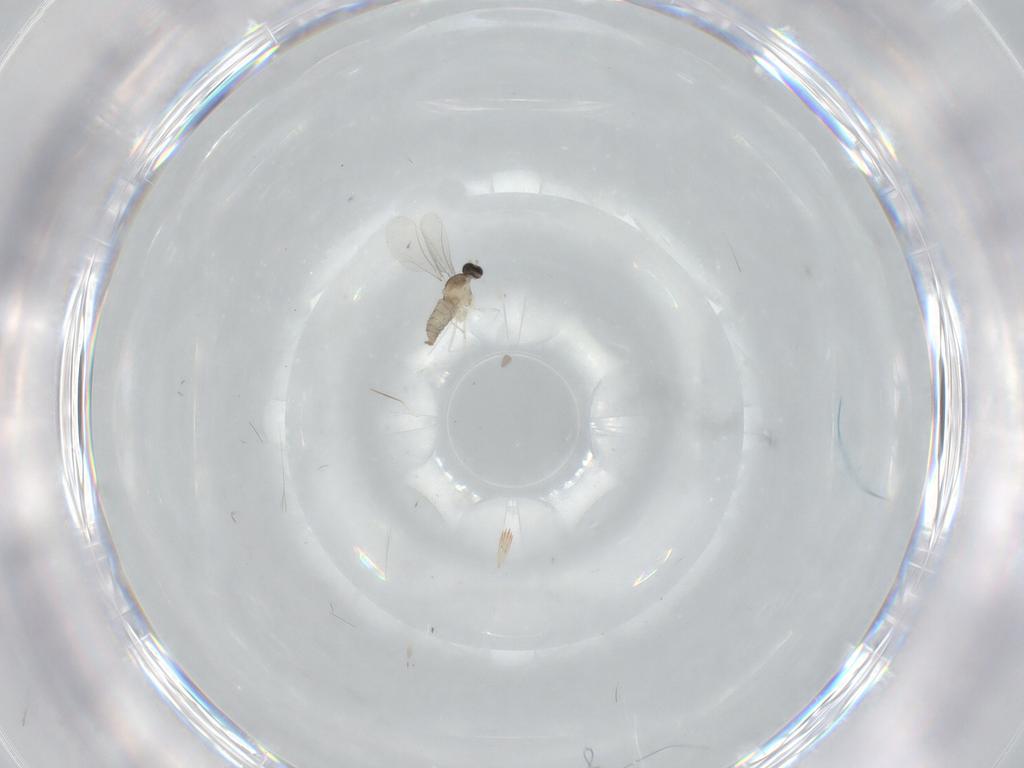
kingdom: Animalia
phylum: Arthropoda
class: Insecta
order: Diptera
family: Cecidomyiidae
